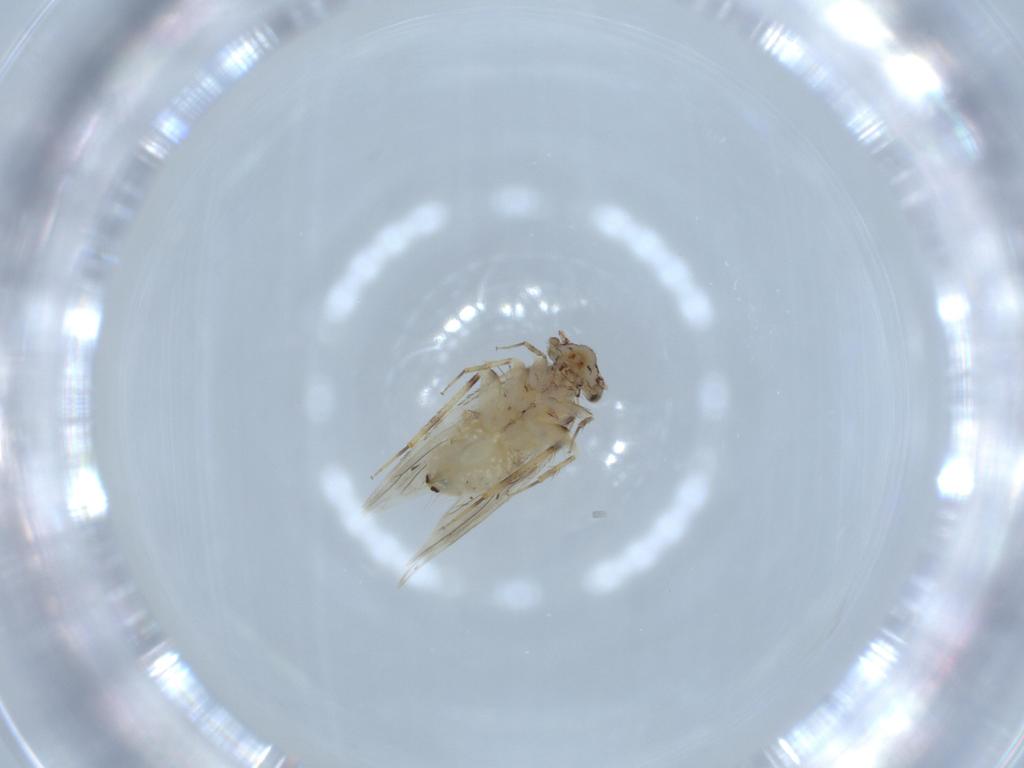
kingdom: Animalia
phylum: Arthropoda
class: Insecta
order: Psocodea
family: Lepidopsocidae
